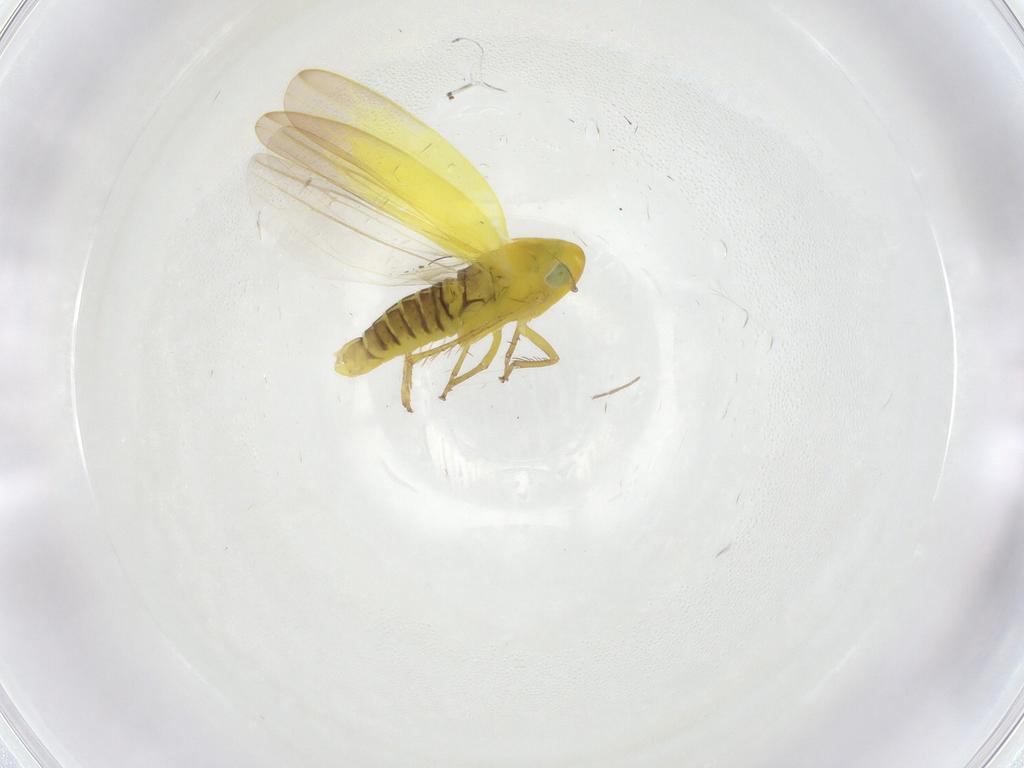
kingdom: Animalia
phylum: Arthropoda
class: Insecta
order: Hemiptera
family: Cicadellidae
